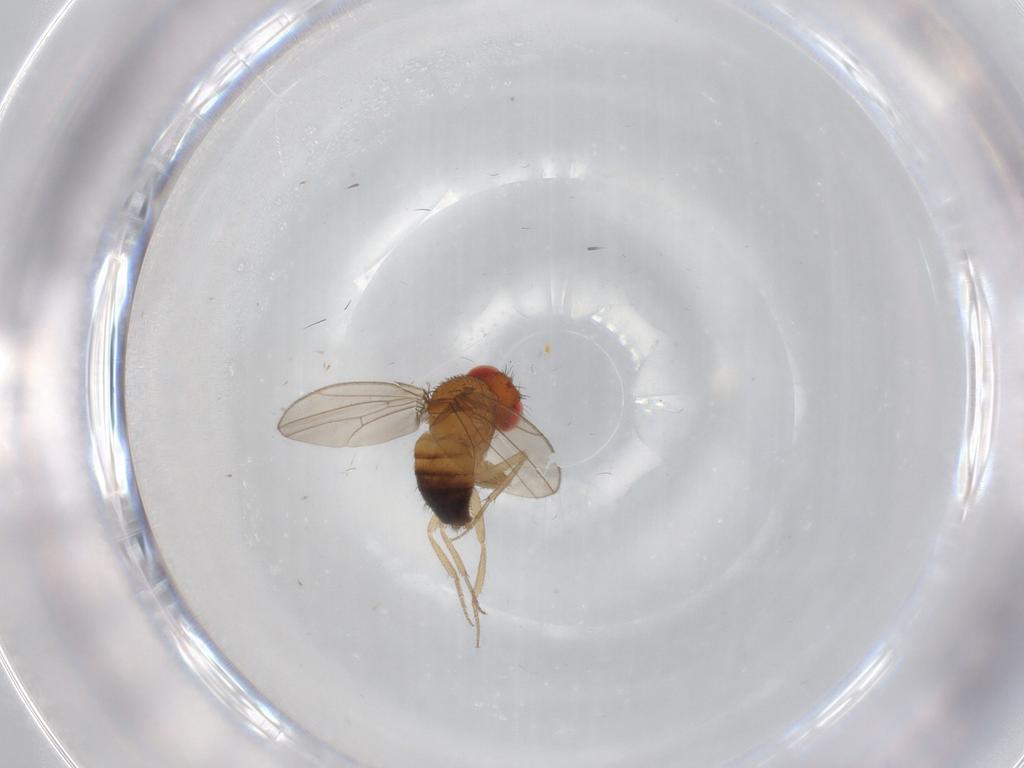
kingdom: Animalia
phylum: Arthropoda
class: Insecta
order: Diptera
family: Drosophilidae
